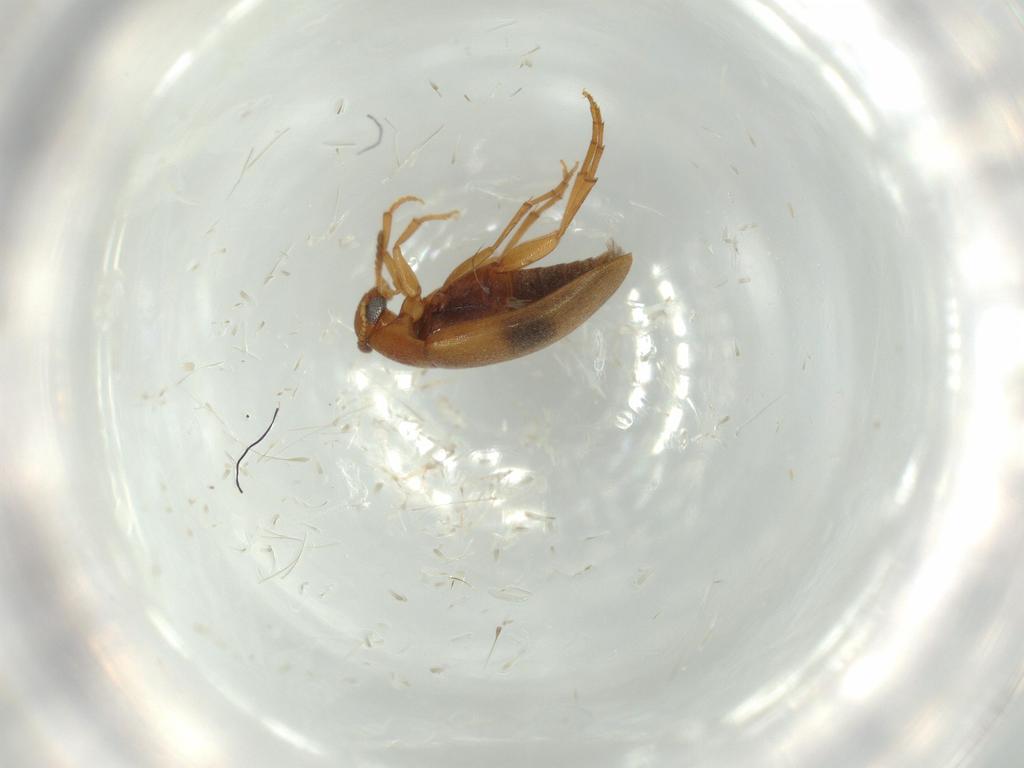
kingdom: Animalia
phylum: Arthropoda
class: Insecta
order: Coleoptera
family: Scraptiidae
